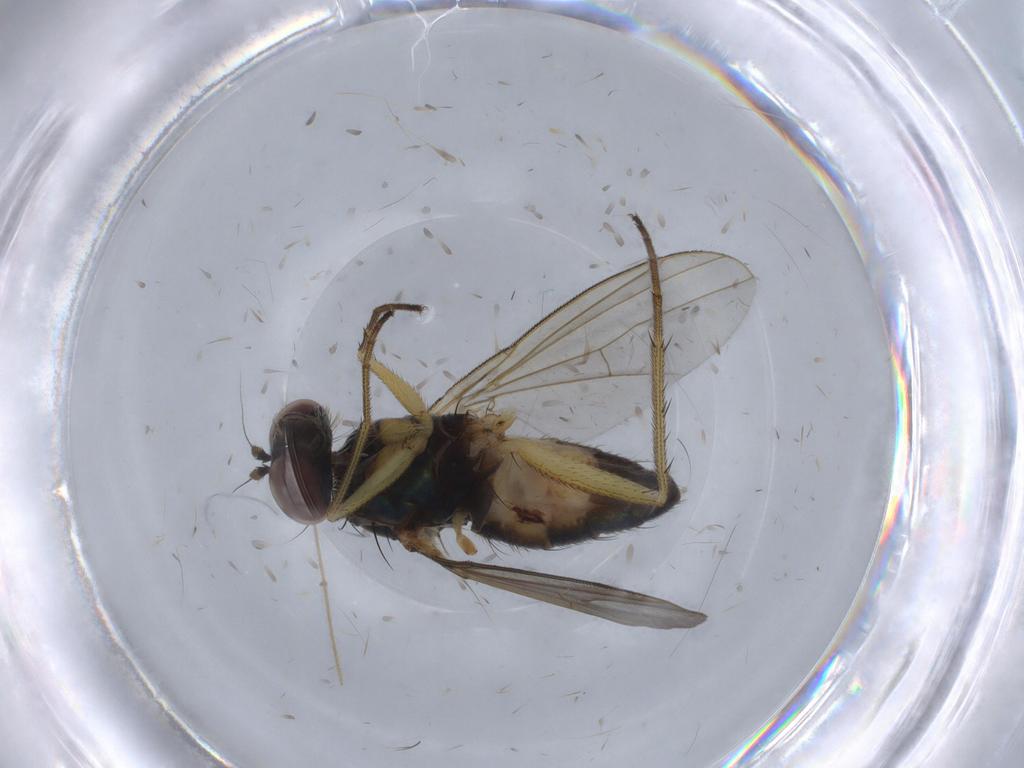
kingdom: Animalia
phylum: Arthropoda
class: Insecta
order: Diptera
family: Dolichopodidae
